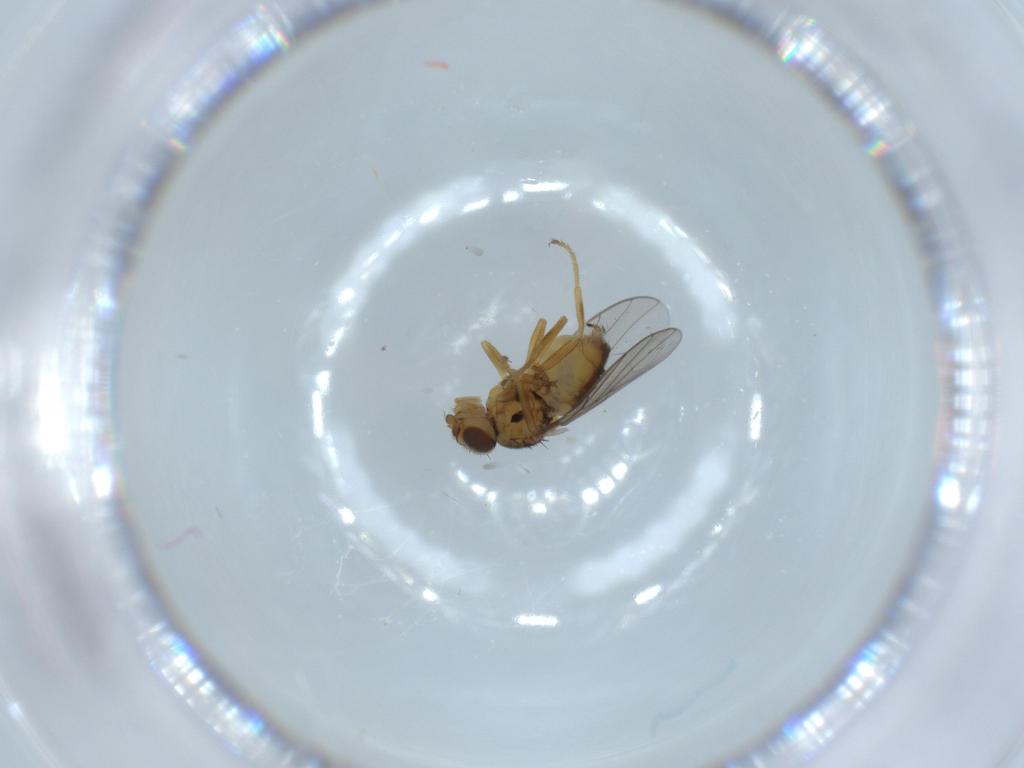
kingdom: Animalia
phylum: Arthropoda
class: Insecta
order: Diptera
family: Chloropidae
